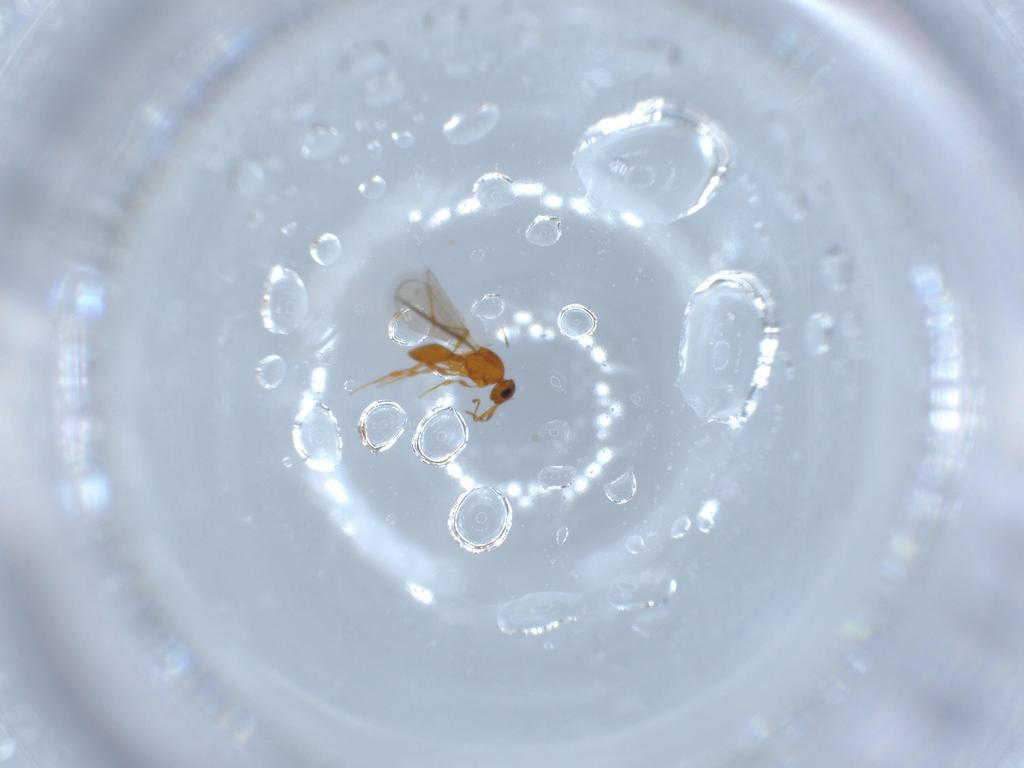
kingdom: Animalia
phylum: Arthropoda
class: Insecta
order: Hymenoptera
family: Platygastridae
